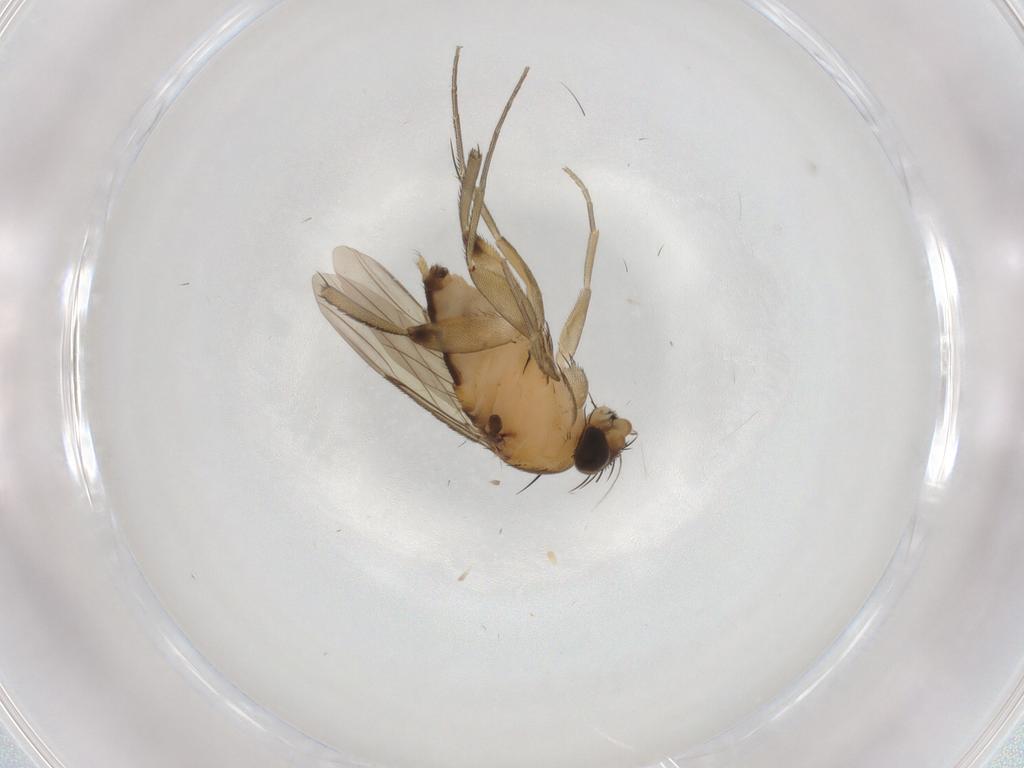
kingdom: Animalia
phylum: Arthropoda
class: Insecta
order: Diptera
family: Phoridae
